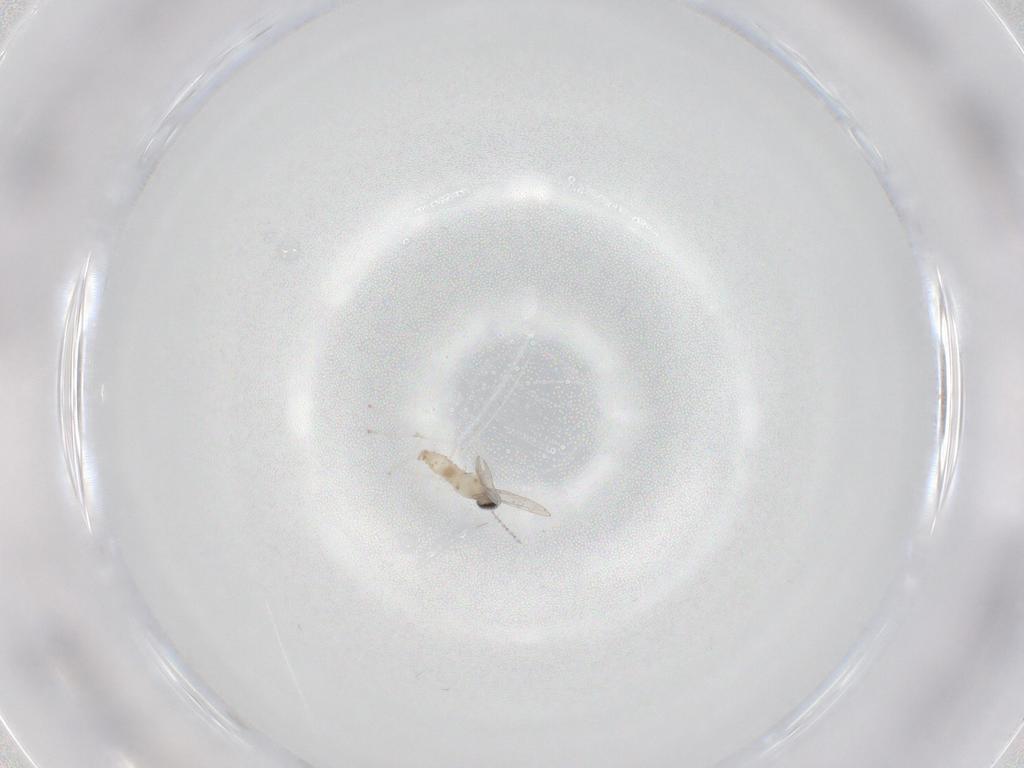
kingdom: Animalia
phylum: Arthropoda
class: Insecta
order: Diptera
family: Cecidomyiidae
